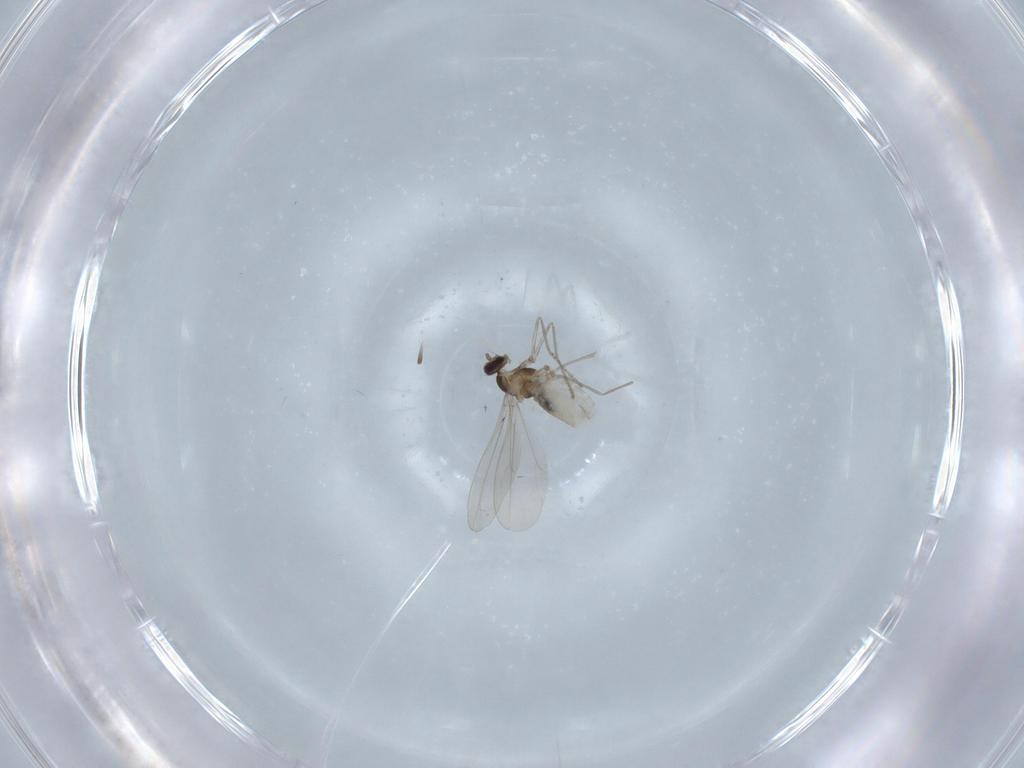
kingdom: Animalia
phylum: Arthropoda
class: Insecta
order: Diptera
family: Cecidomyiidae
